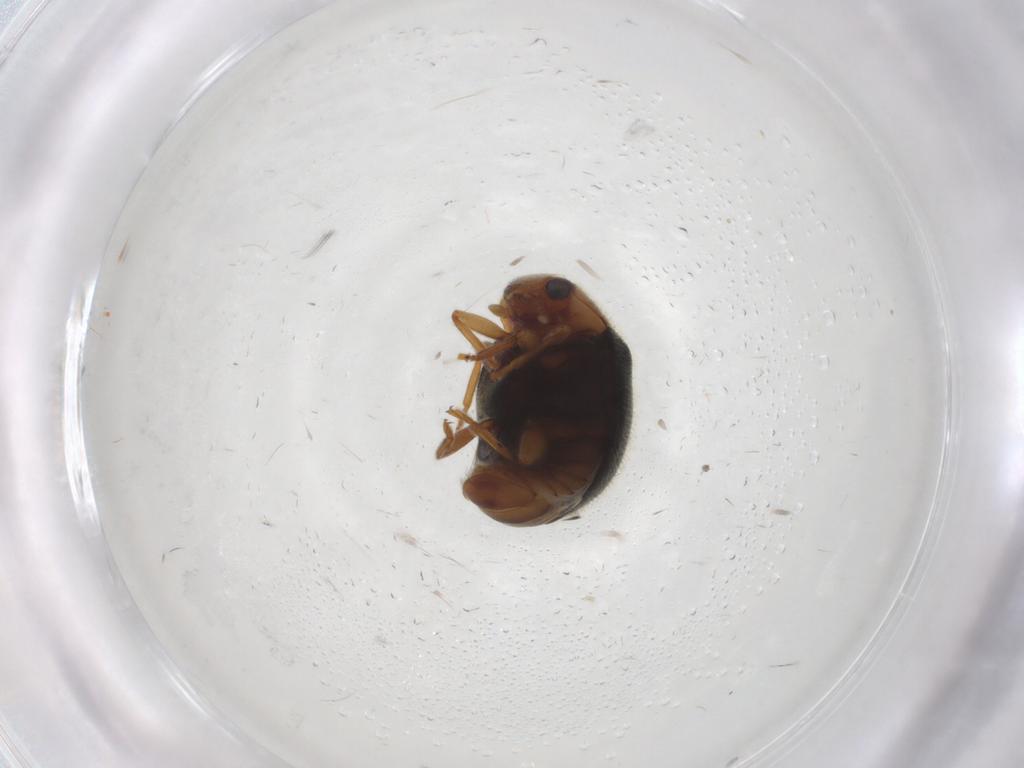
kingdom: Animalia
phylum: Arthropoda
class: Insecta
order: Coleoptera
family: Coccinellidae
